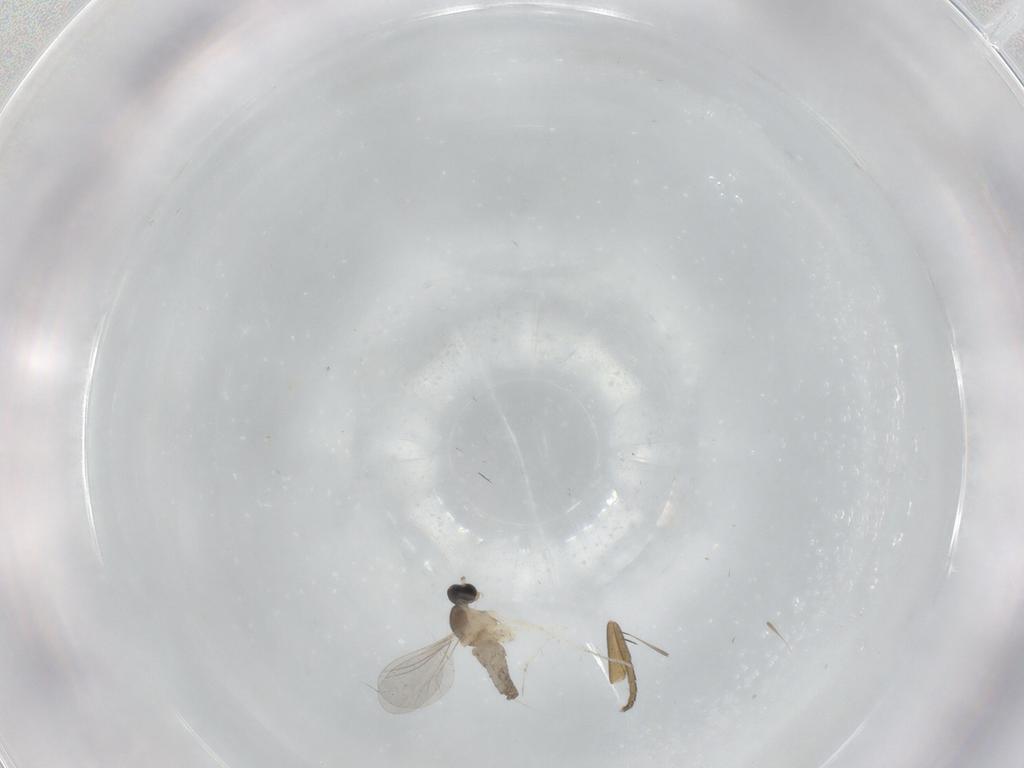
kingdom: Animalia
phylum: Arthropoda
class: Insecta
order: Diptera
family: Phoridae
